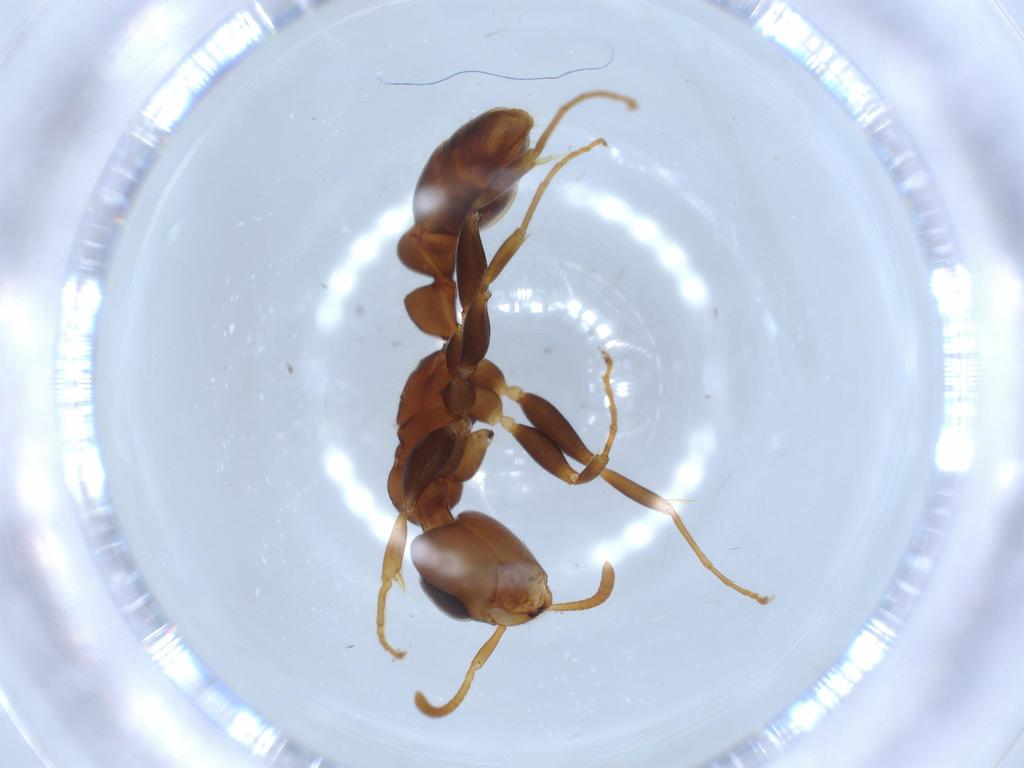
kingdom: Animalia
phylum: Arthropoda
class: Insecta
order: Hymenoptera
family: Formicidae
